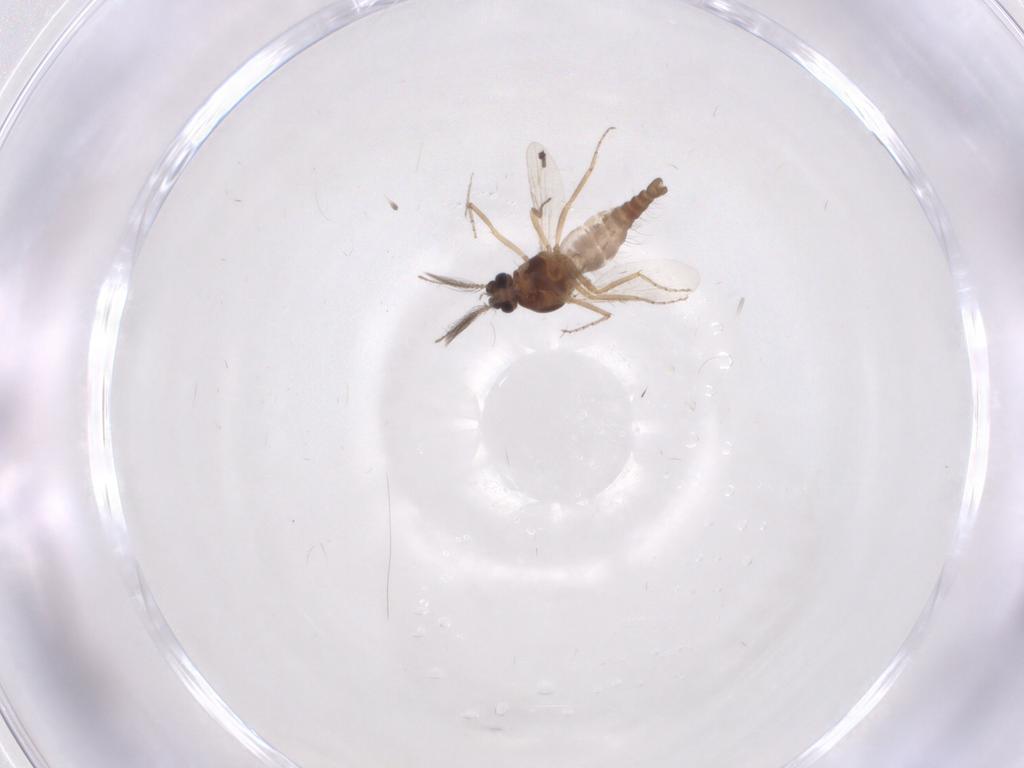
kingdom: Animalia
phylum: Arthropoda
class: Insecta
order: Diptera
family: Ceratopogonidae
